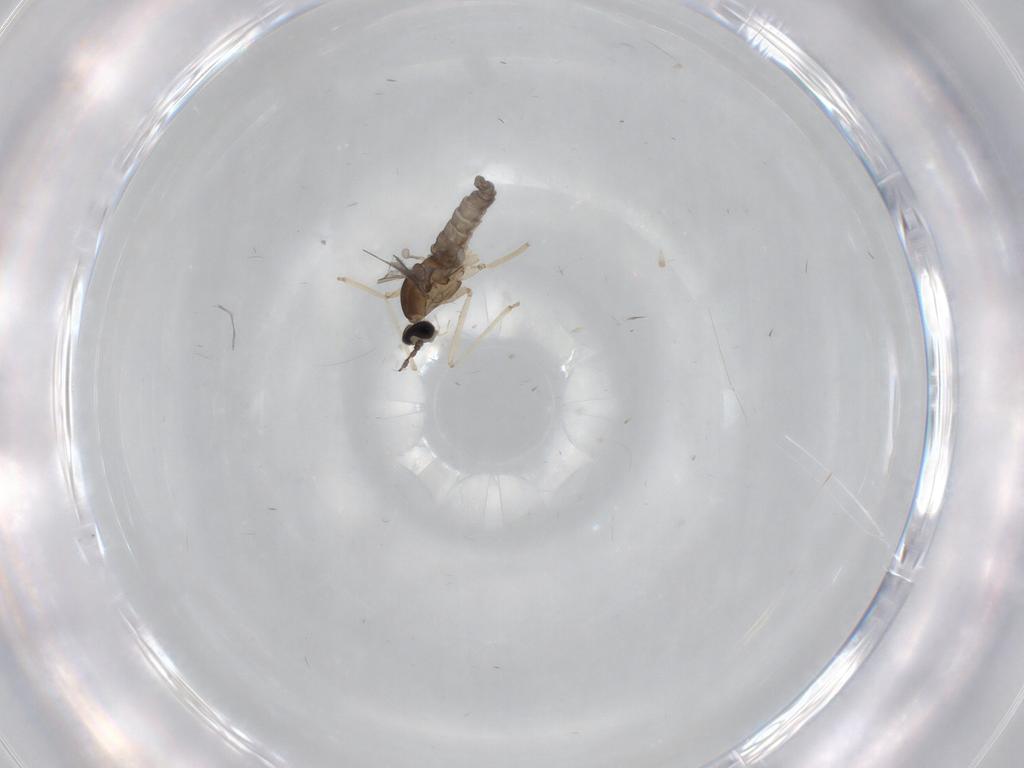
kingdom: Animalia
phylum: Arthropoda
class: Insecta
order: Diptera
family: Cecidomyiidae
